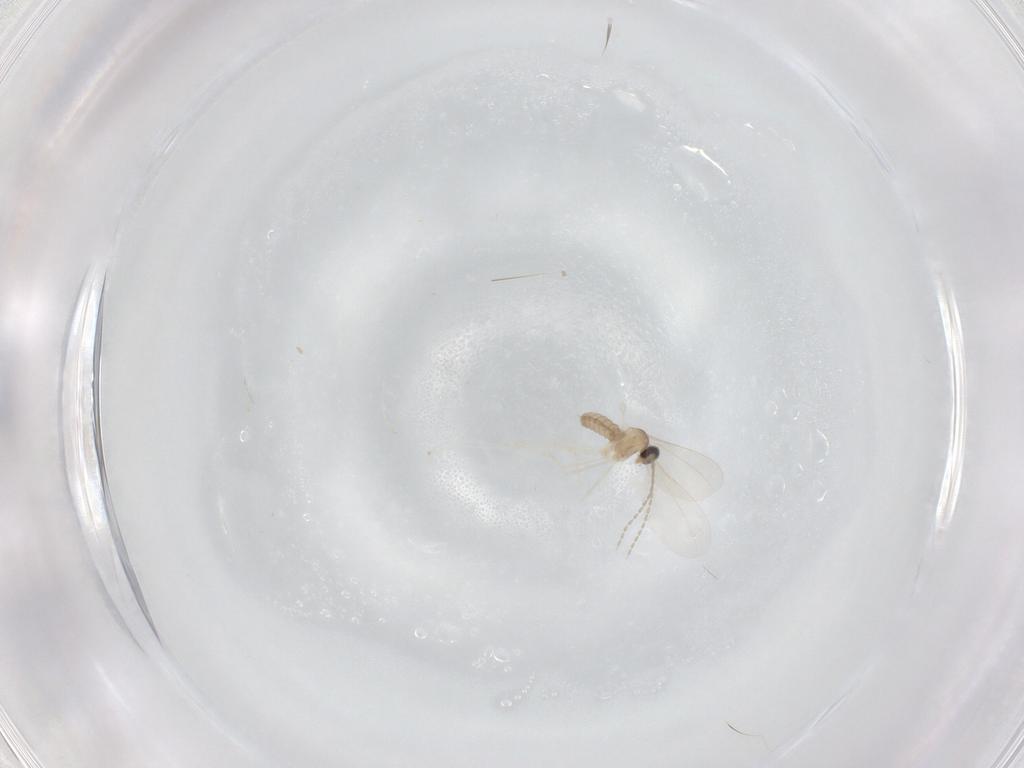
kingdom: Animalia
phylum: Arthropoda
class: Insecta
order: Diptera
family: Cecidomyiidae
